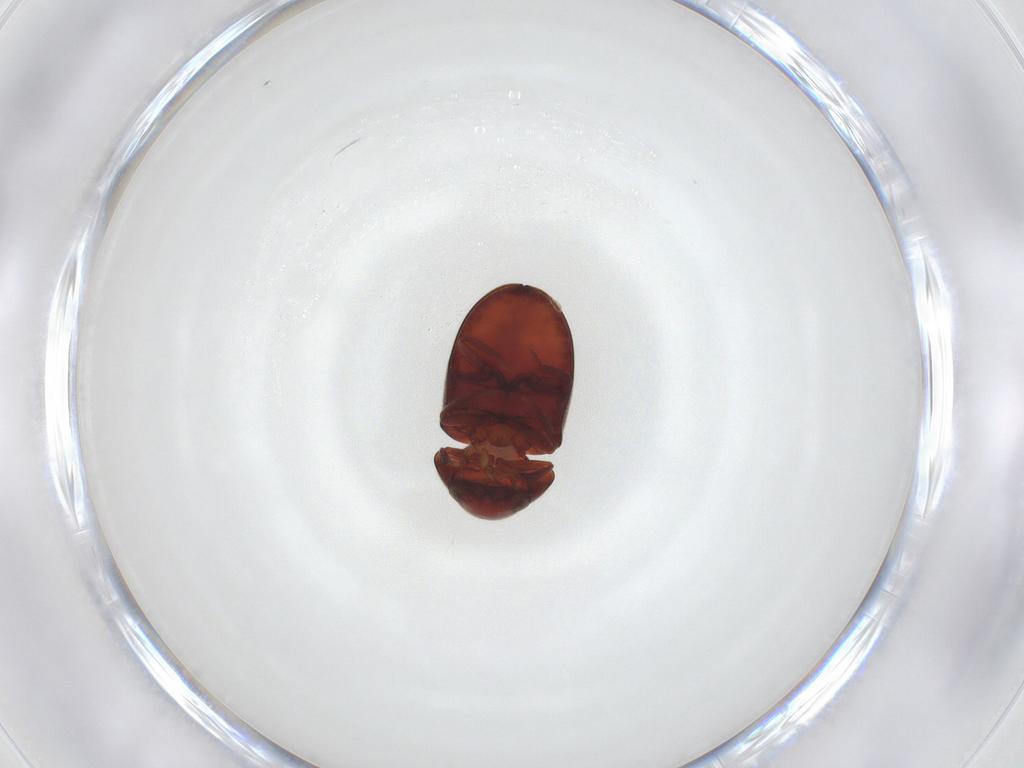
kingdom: Animalia
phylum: Arthropoda
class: Insecta
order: Coleoptera
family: Ptinidae
